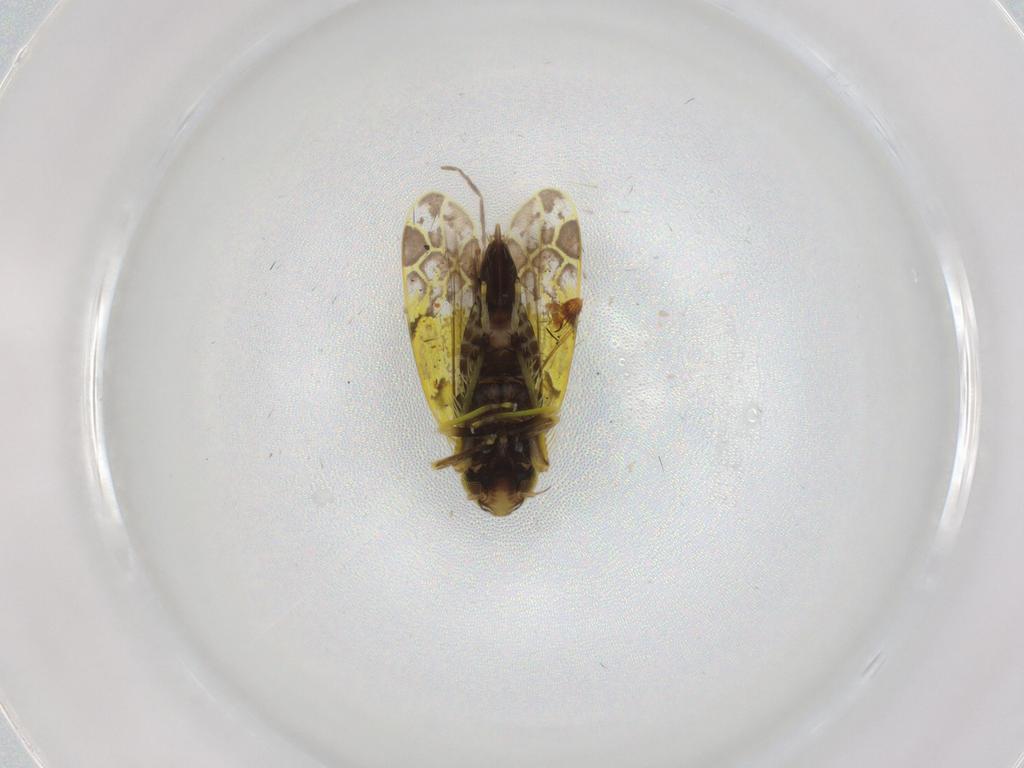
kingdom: Animalia
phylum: Arthropoda
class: Insecta
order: Hemiptera
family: Cicadellidae
